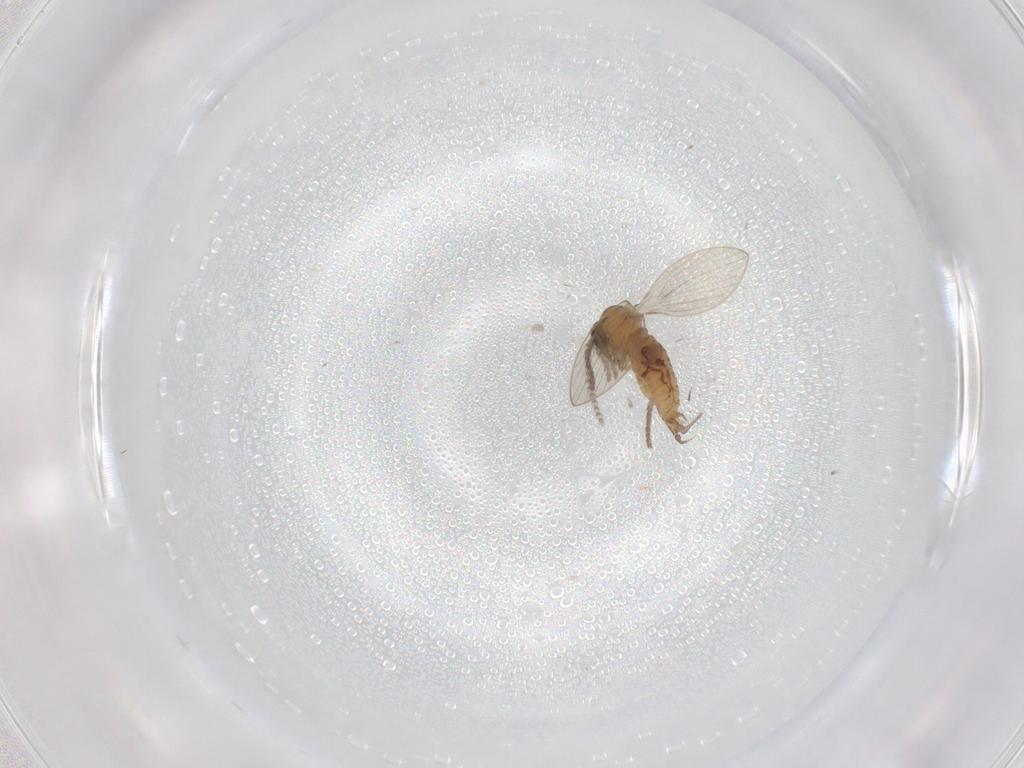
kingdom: Animalia
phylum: Arthropoda
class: Insecta
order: Diptera
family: Psychodidae
